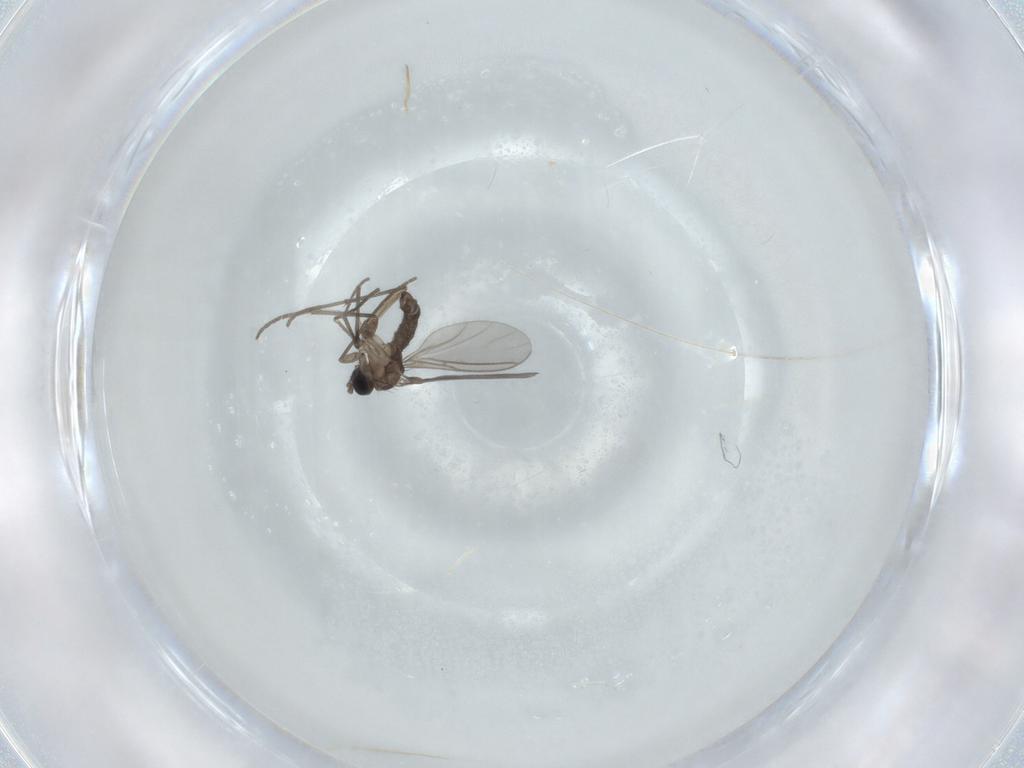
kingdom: Animalia
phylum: Arthropoda
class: Insecta
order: Diptera
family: Sciaridae
